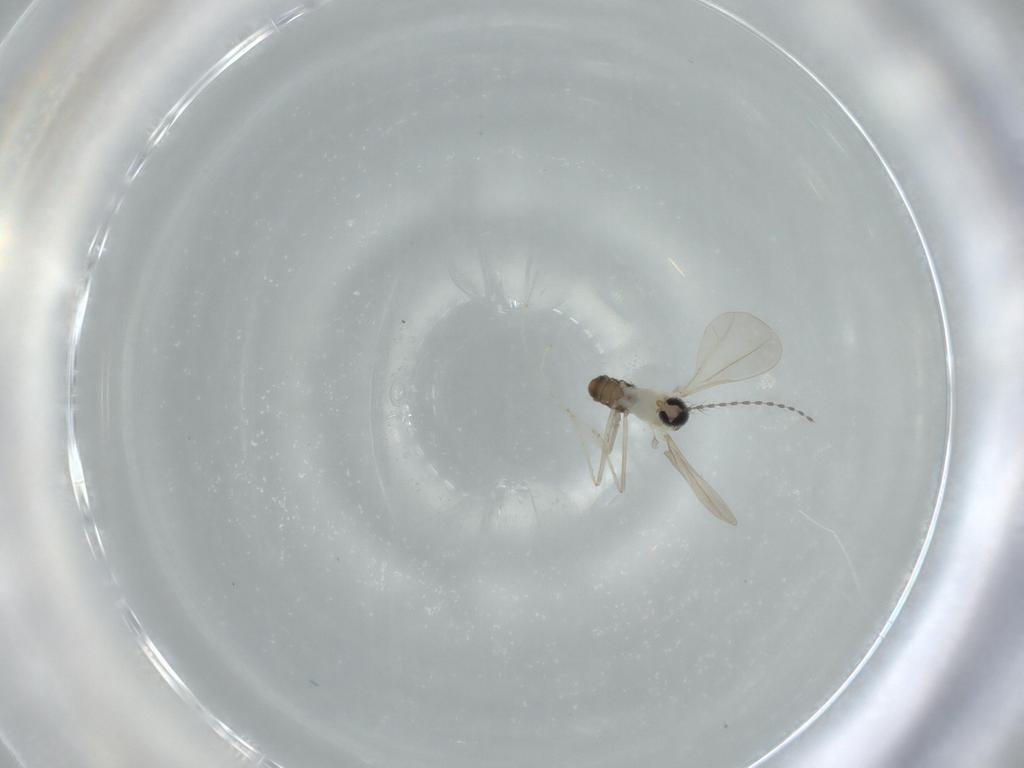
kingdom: Animalia
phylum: Arthropoda
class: Insecta
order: Diptera
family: Cecidomyiidae
